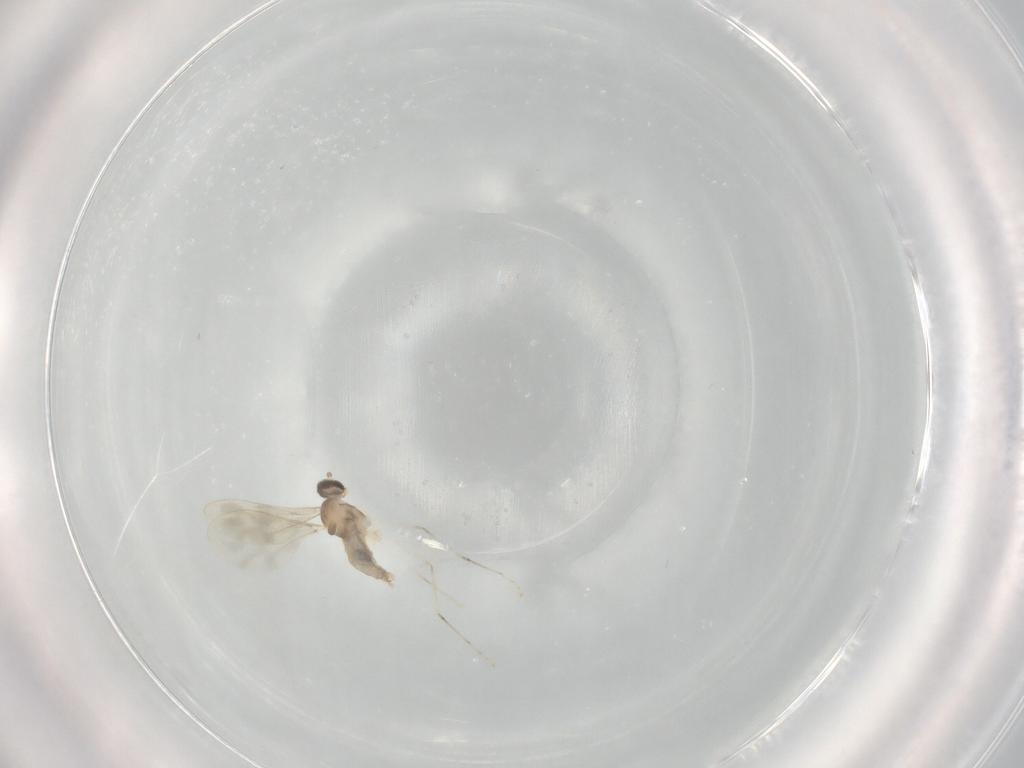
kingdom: Animalia
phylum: Arthropoda
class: Insecta
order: Diptera
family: Cecidomyiidae
